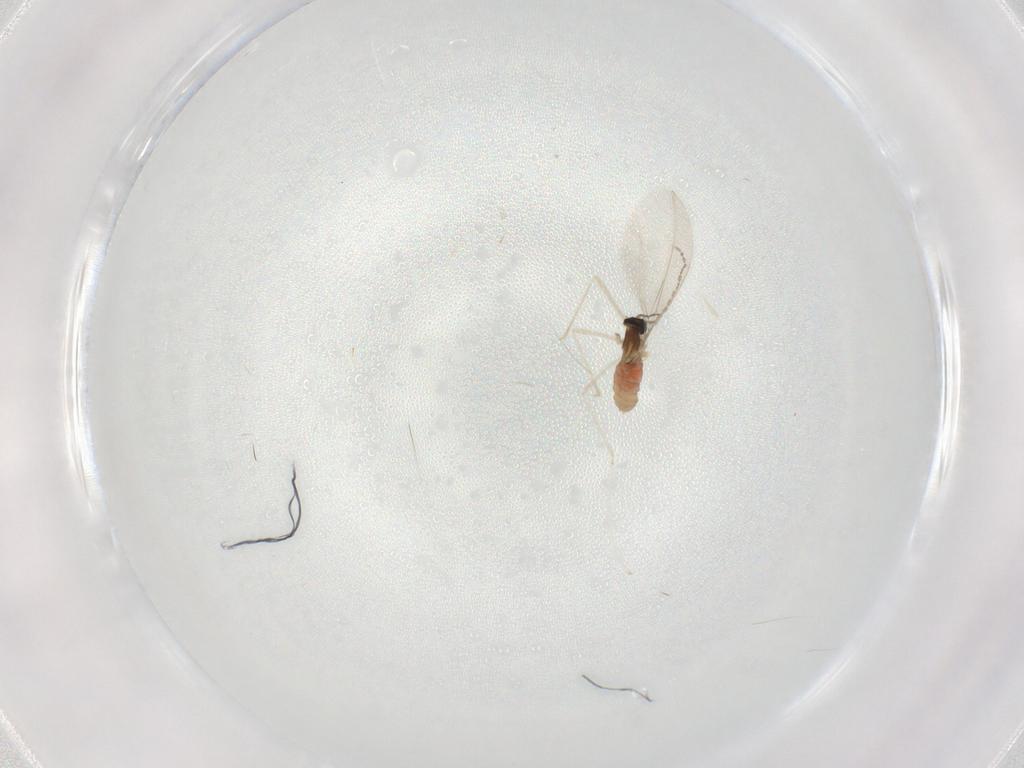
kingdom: Animalia
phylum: Arthropoda
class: Insecta
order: Diptera
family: Cecidomyiidae
